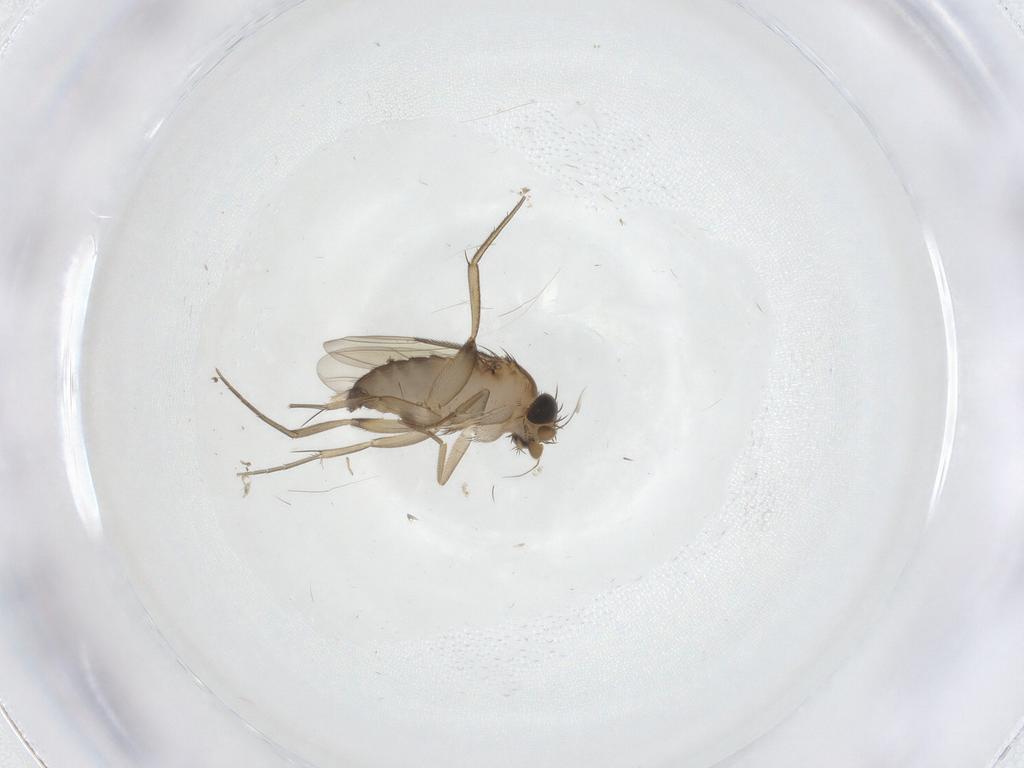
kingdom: Animalia
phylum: Arthropoda
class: Insecta
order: Diptera
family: Phoridae
